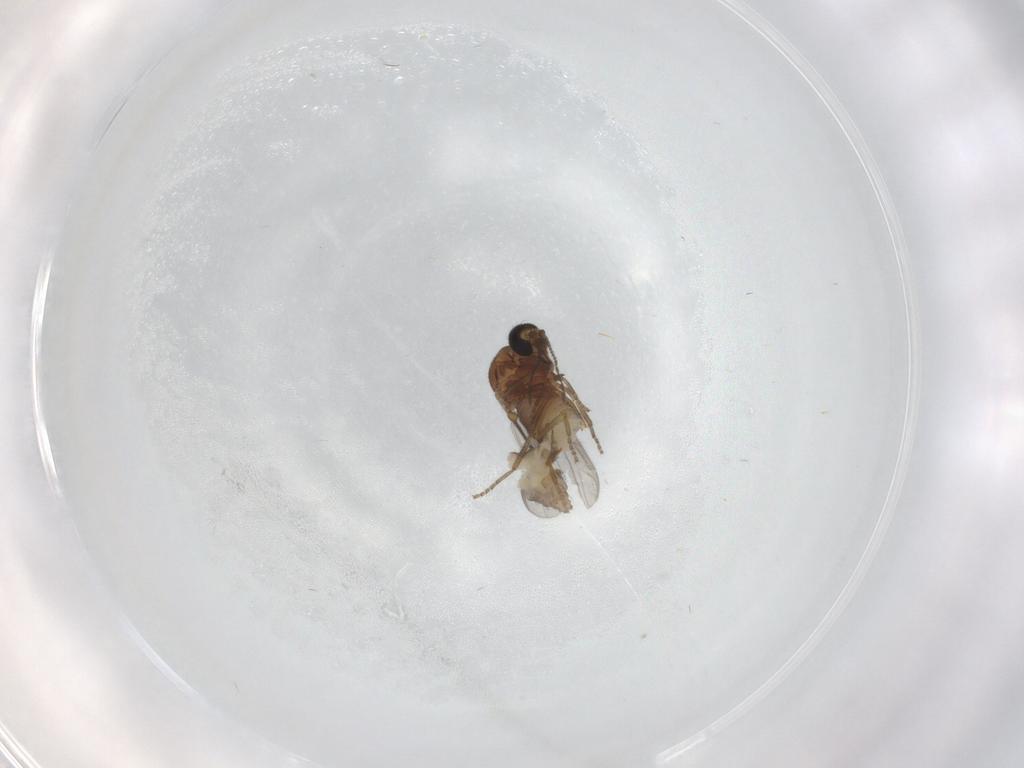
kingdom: Animalia
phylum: Arthropoda
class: Insecta
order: Diptera
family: Ceratopogonidae
